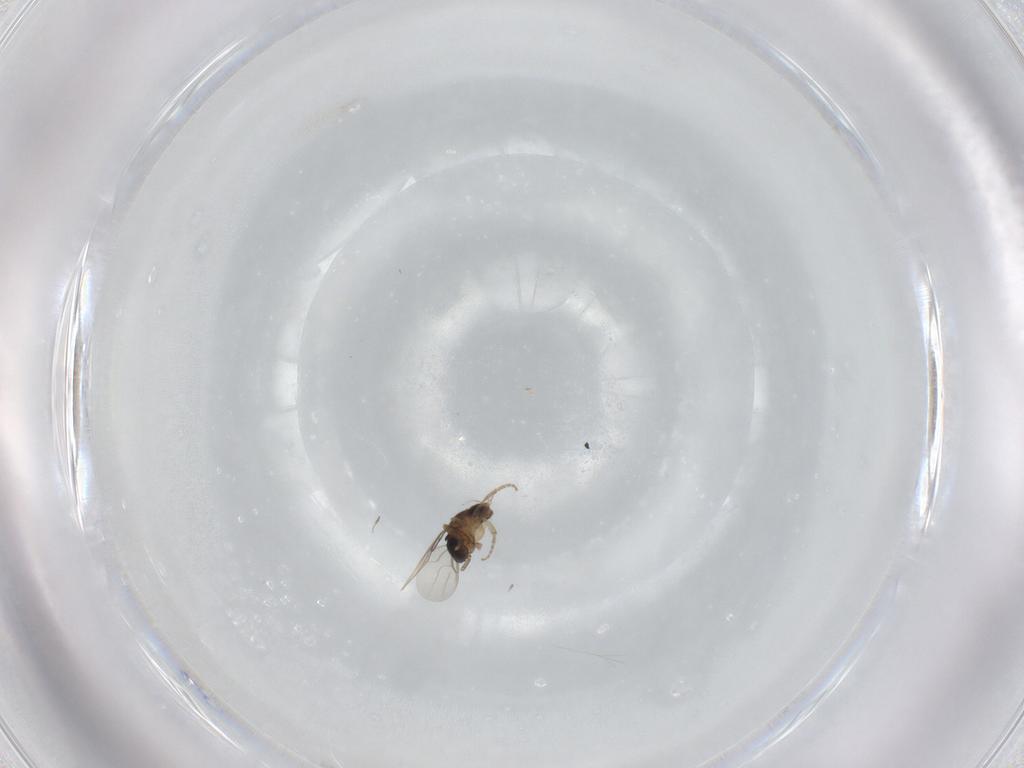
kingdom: Animalia
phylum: Arthropoda
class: Insecta
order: Diptera
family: Phoridae
